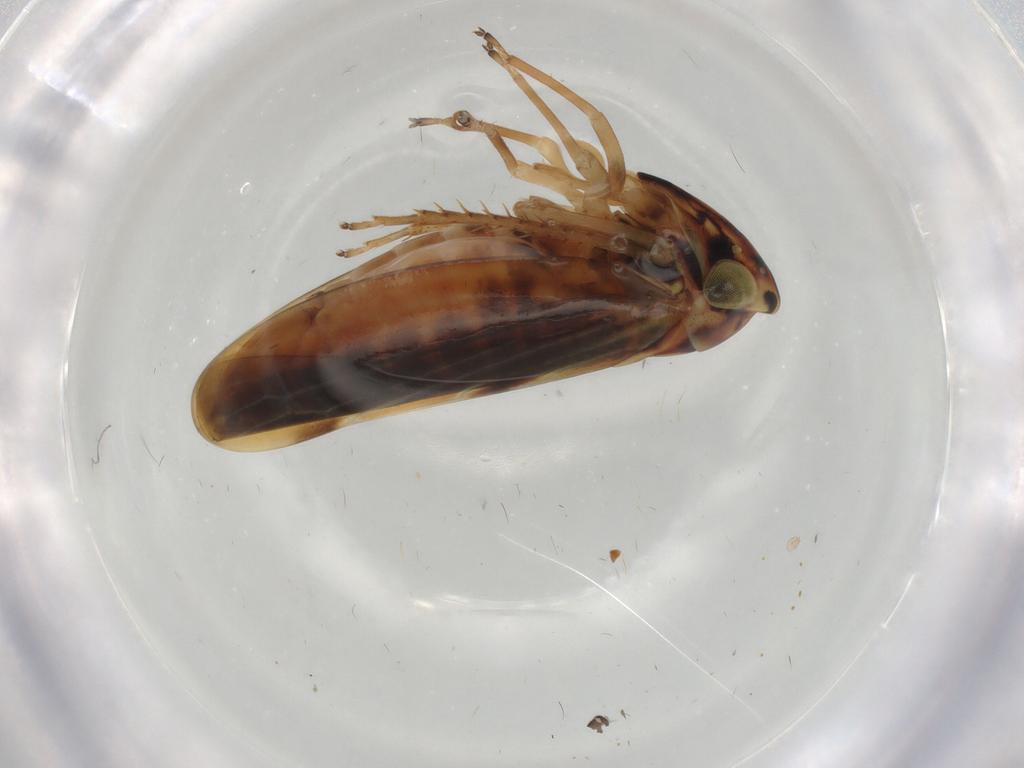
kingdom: Animalia
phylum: Arthropoda
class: Insecta
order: Hemiptera
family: Cicadellidae
